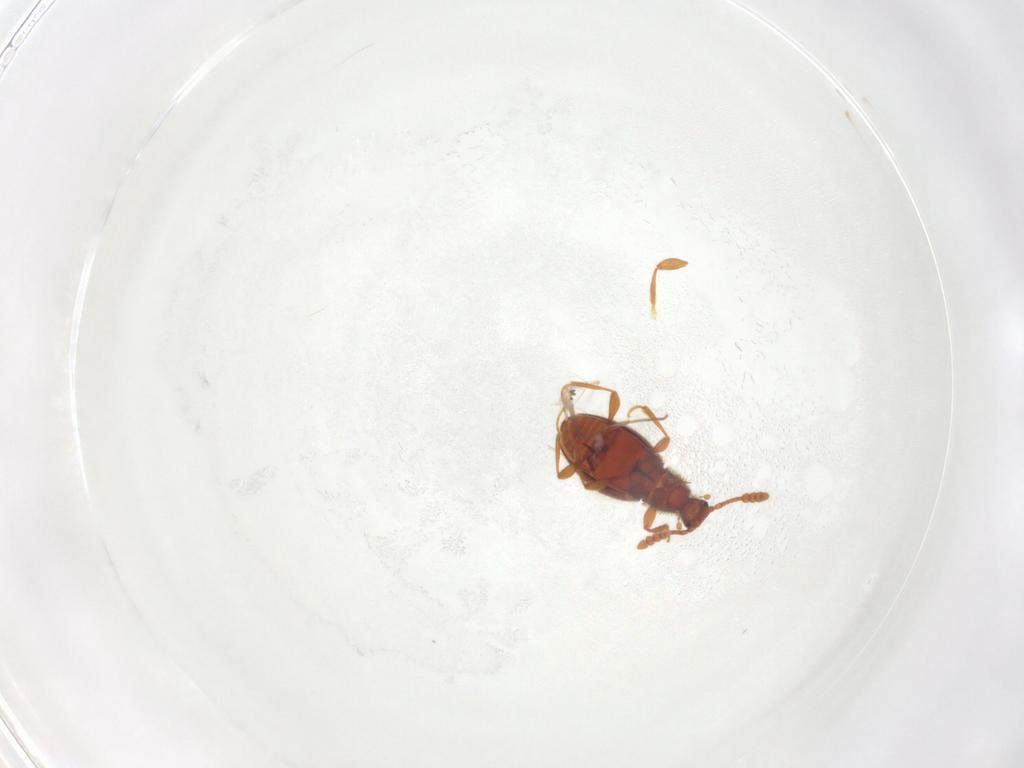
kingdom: Animalia
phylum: Arthropoda
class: Insecta
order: Coleoptera
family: Staphylinidae
